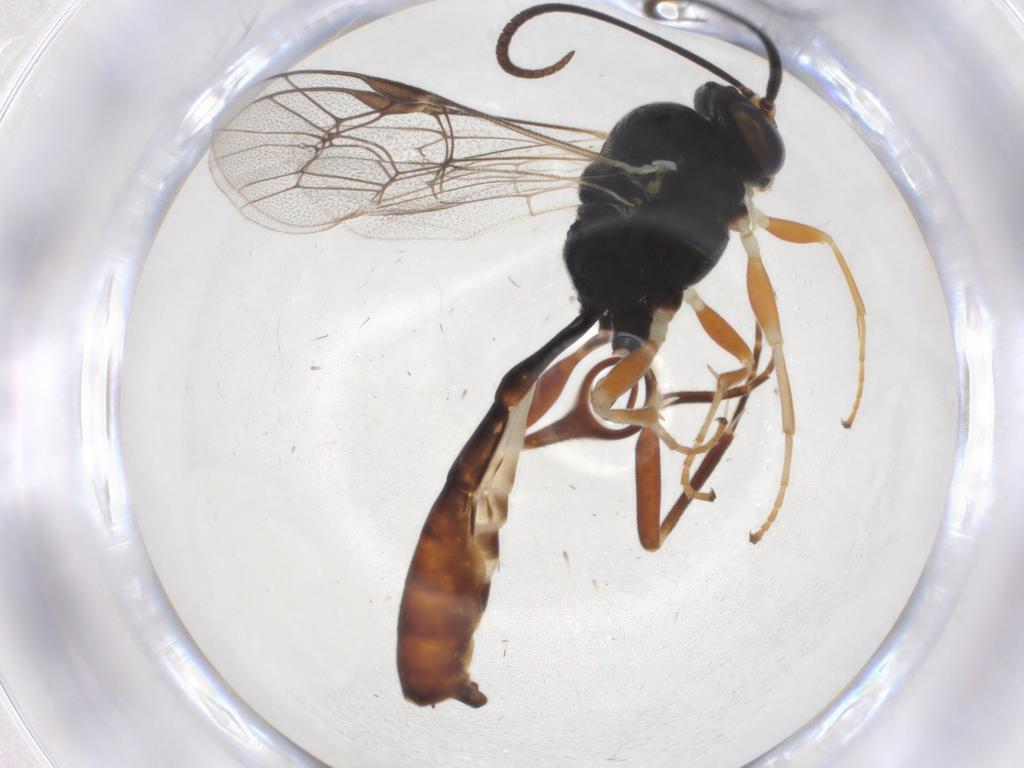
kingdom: Animalia
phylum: Arthropoda
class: Insecta
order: Hymenoptera
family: Ichneumonidae
